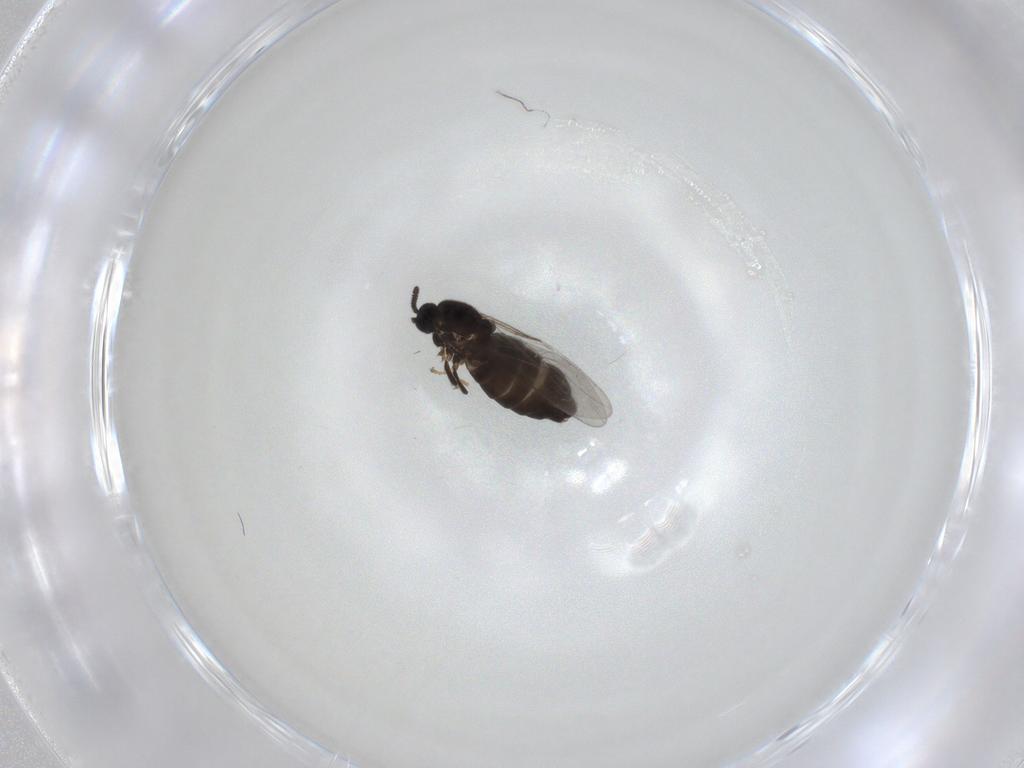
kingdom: Animalia
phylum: Arthropoda
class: Insecta
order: Diptera
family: Scatopsidae
